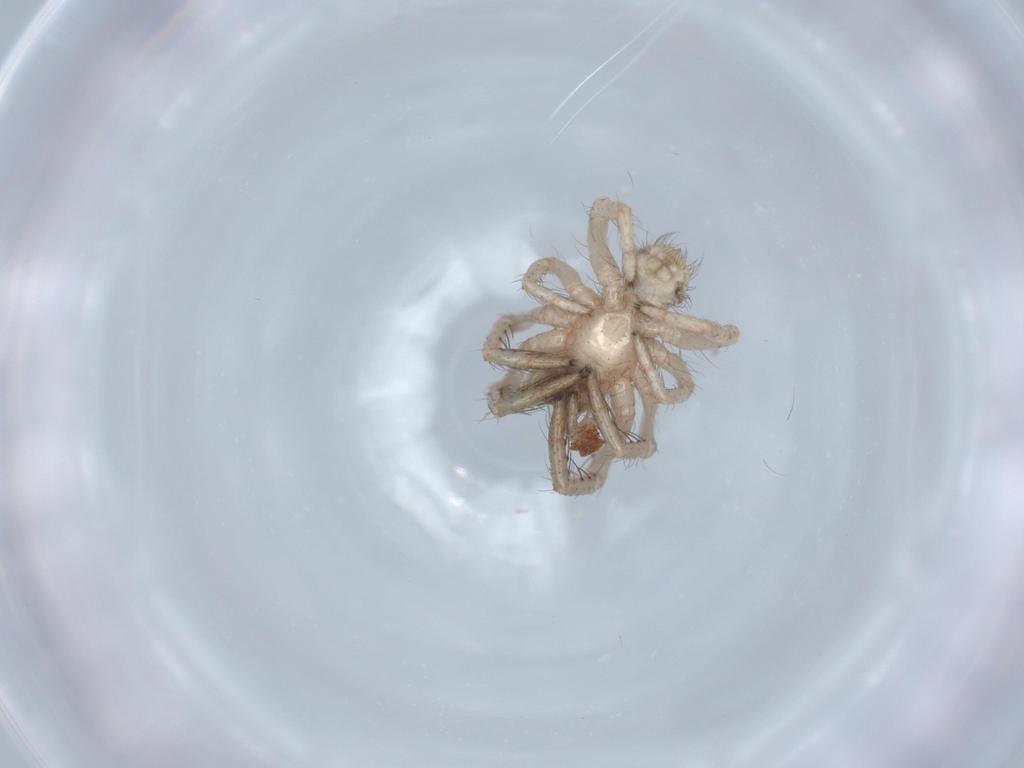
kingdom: Animalia
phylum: Arthropoda
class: Arachnida
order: Araneae
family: Segestriidae
